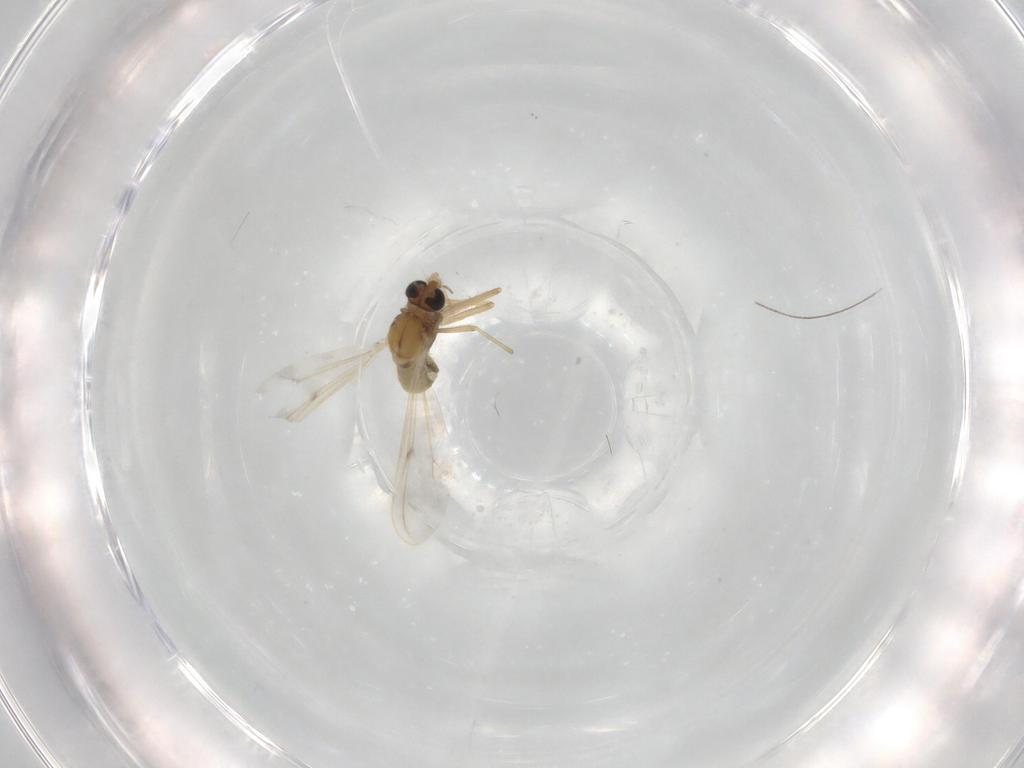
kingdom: Animalia
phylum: Arthropoda
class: Insecta
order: Diptera
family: Chironomidae
